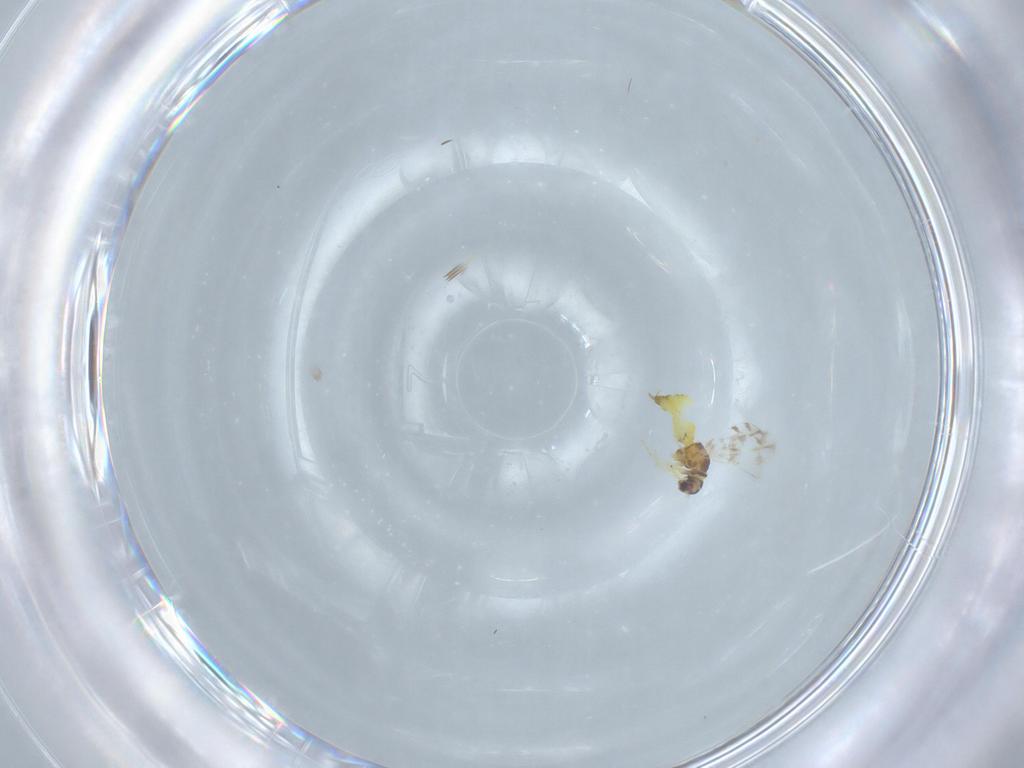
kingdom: Animalia
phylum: Arthropoda
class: Insecta
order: Hemiptera
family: Aleyrodidae
